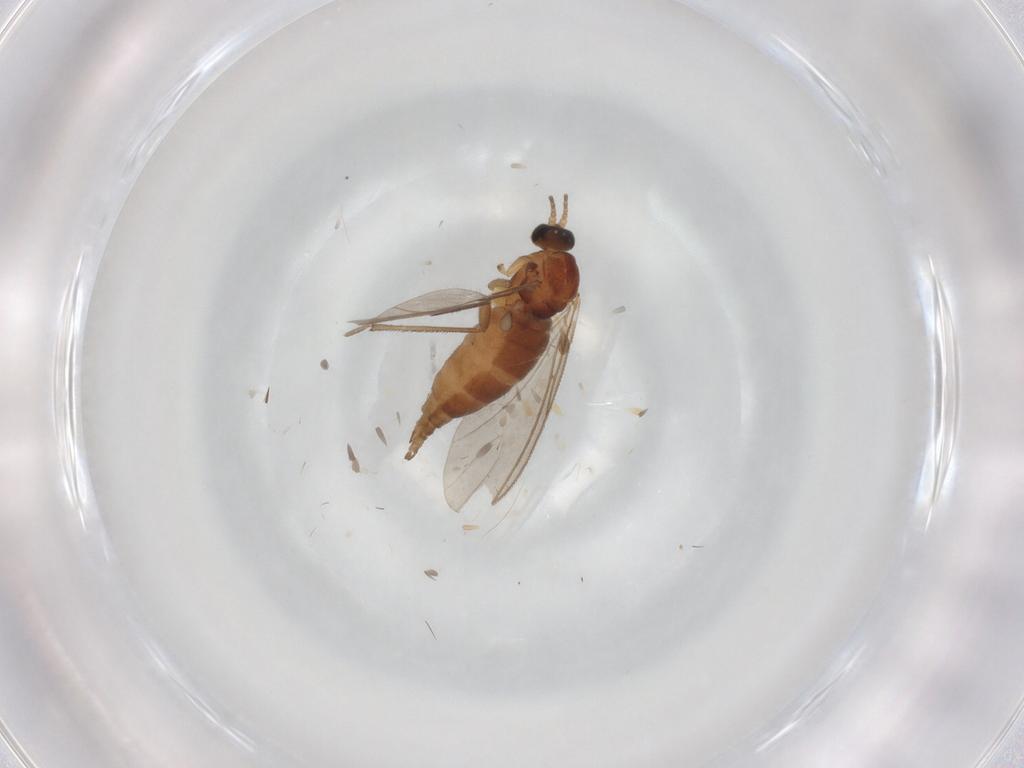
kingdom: Animalia
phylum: Arthropoda
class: Insecta
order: Diptera
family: Sciaridae
